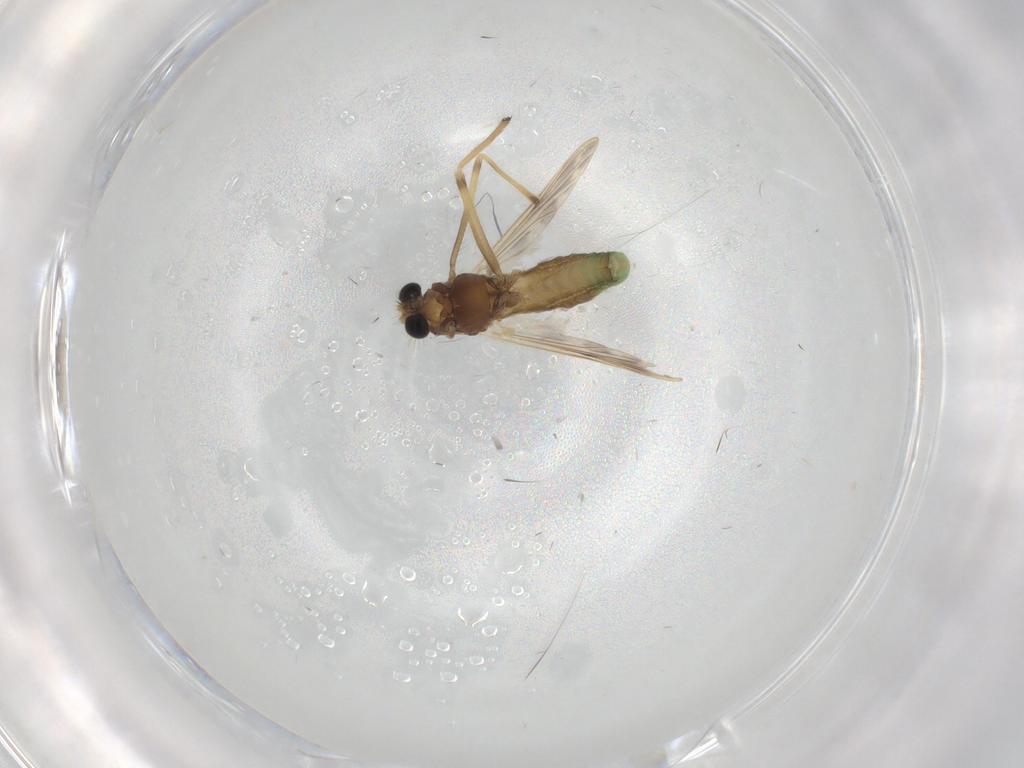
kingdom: Animalia
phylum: Arthropoda
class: Insecta
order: Diptera
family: Chironomidae
